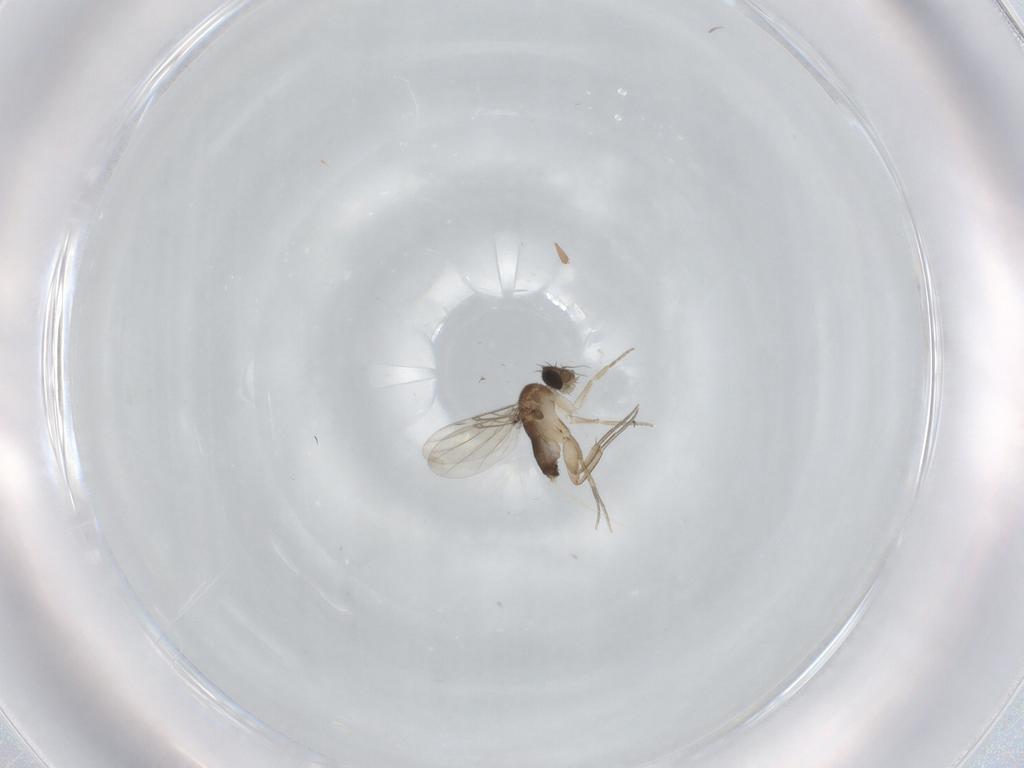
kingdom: Animalia
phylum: Arthropoda
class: Insecta
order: Diptera
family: Phoridae
